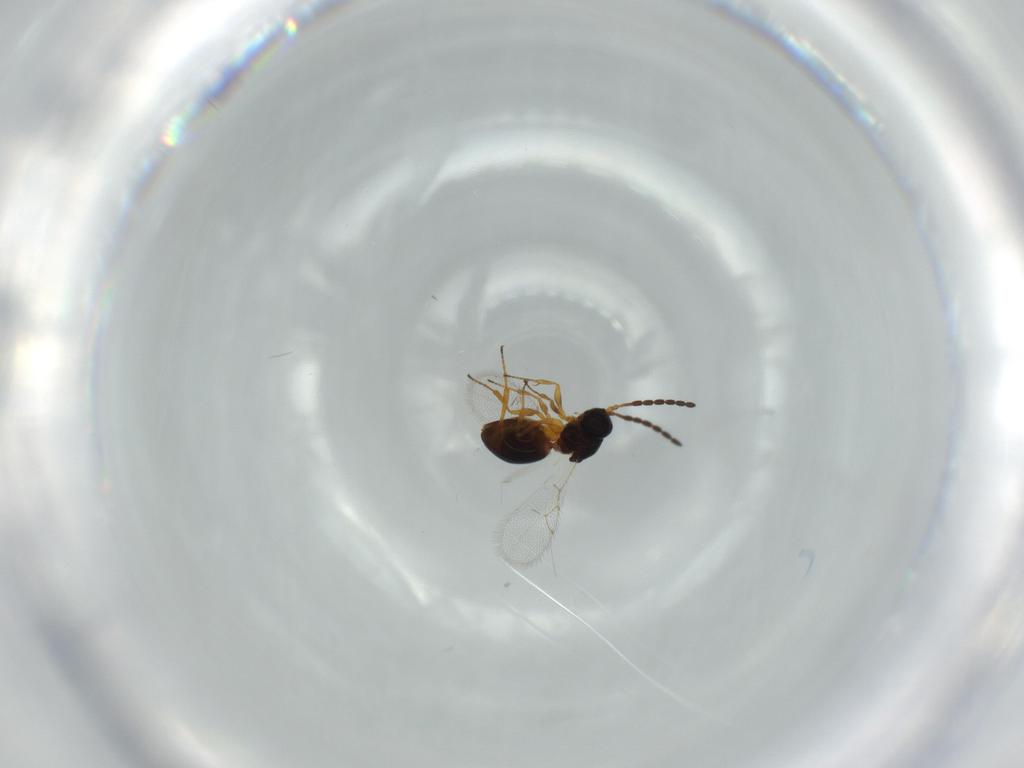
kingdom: Animalia
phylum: Arthropoda
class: Insecta
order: Hymenoptera
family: Figitidae
